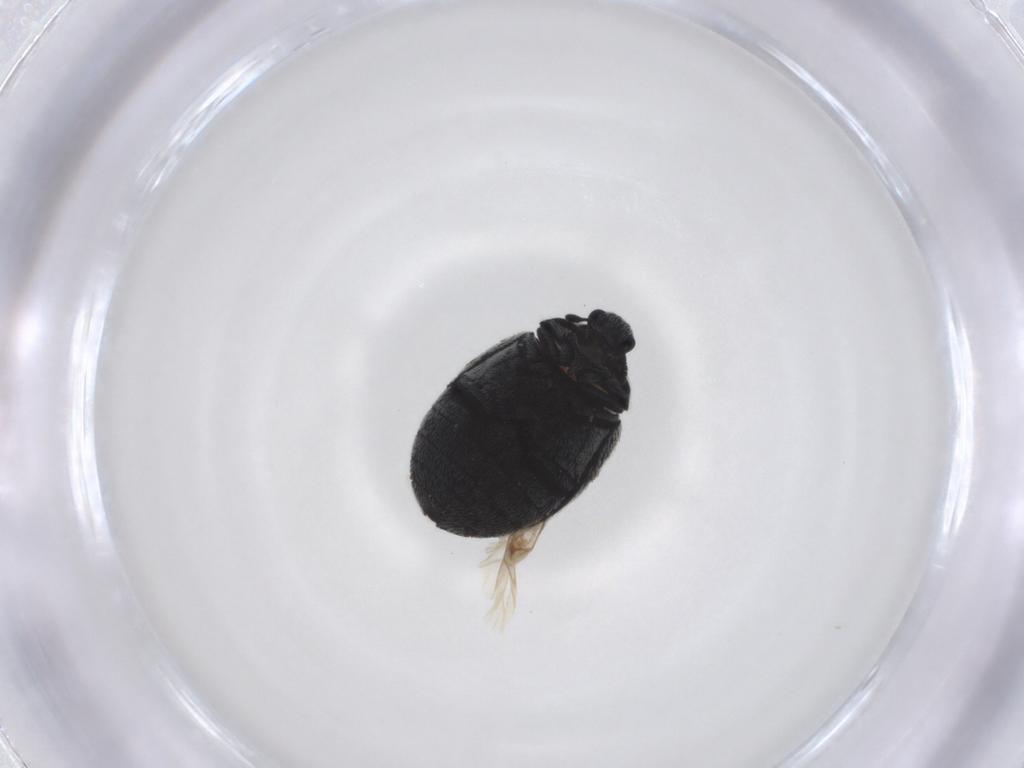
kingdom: Animalia
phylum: Arthropoda
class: Insecta
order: Coleoptera
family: Dermestidae
